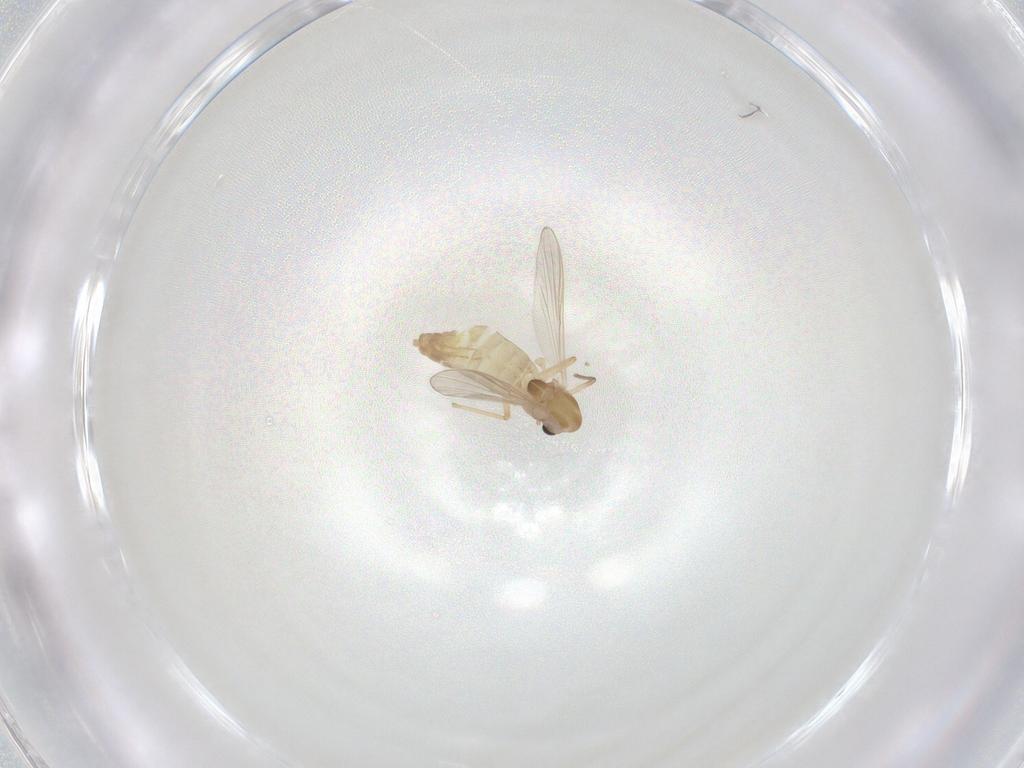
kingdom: Animalia
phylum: Arthropoda
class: Insecta
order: Diptera
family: Chironomidae
